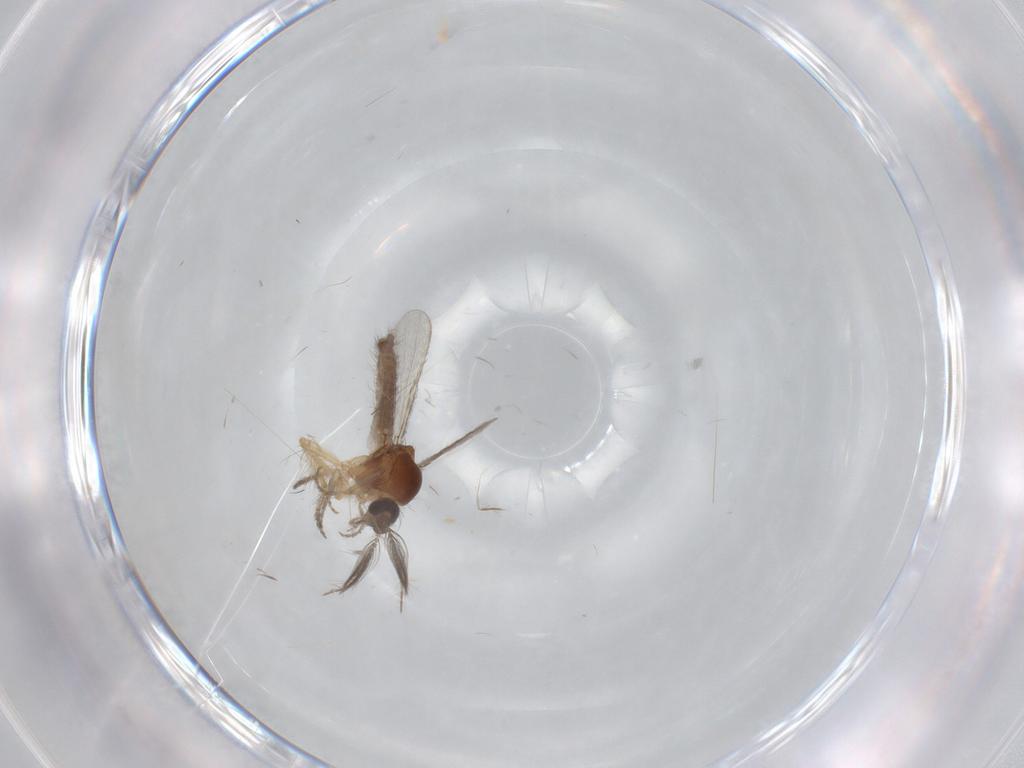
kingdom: Animalia
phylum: Arthropoda
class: Insecta
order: Diptera
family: Ceratopogonidae
